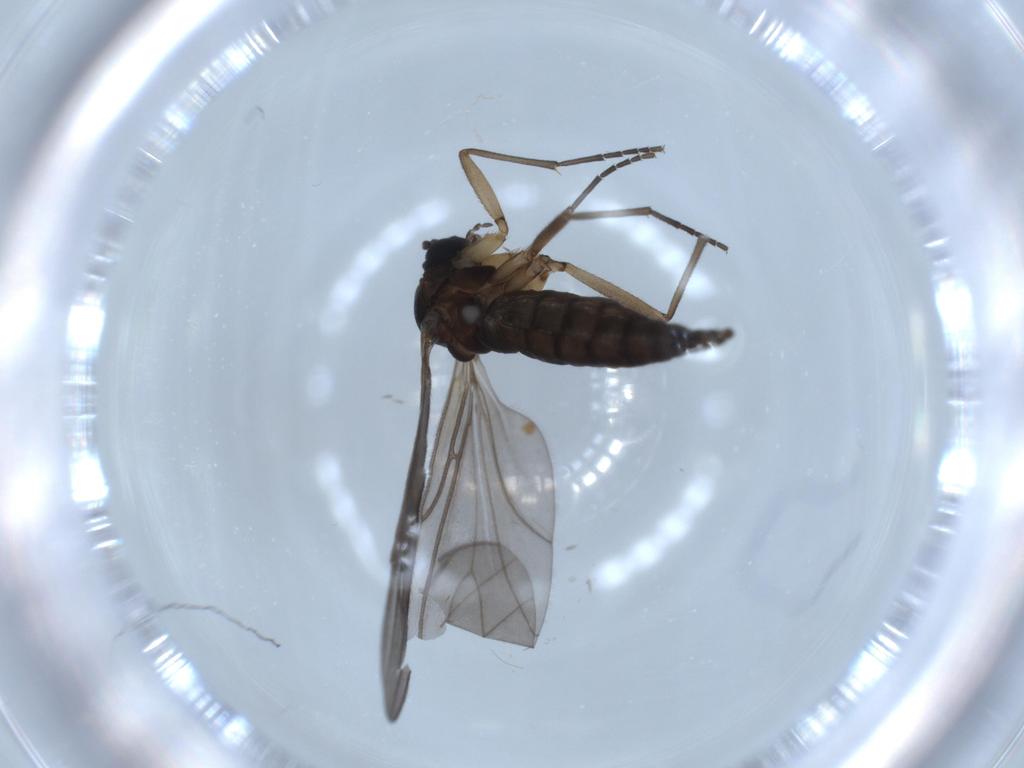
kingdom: Animalia
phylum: Arthropoda
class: Insecta
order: Diptera
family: Sciaridae
